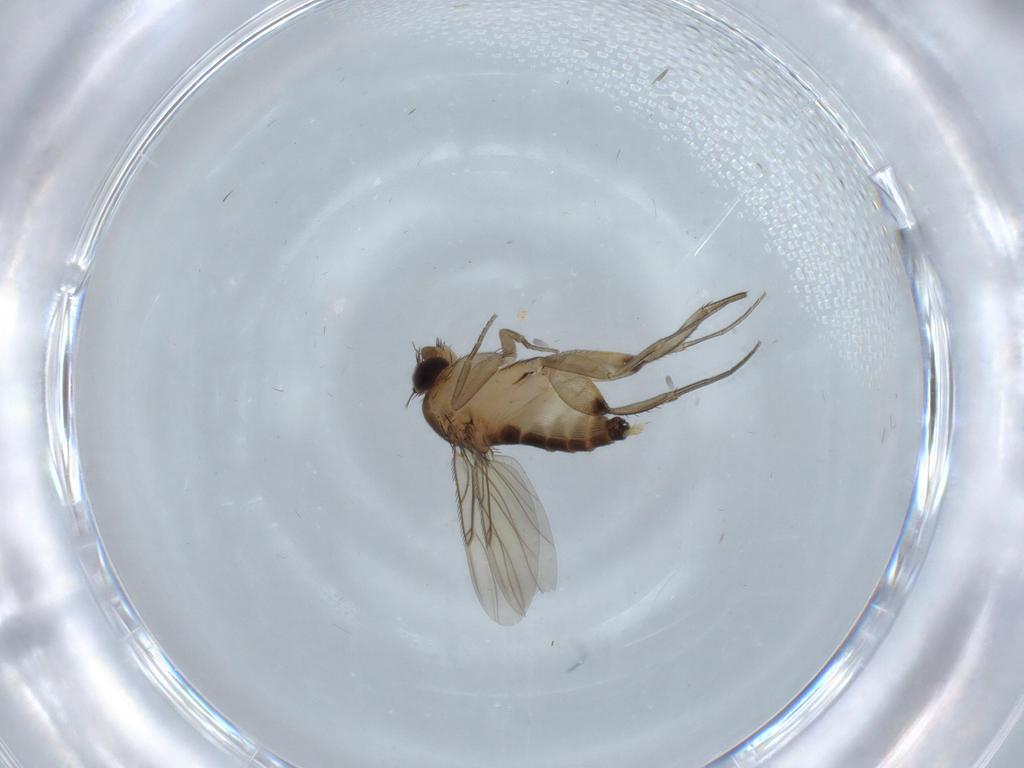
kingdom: Animalia
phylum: Arthropoda
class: Insecta
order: Diptera
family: Phoridae
